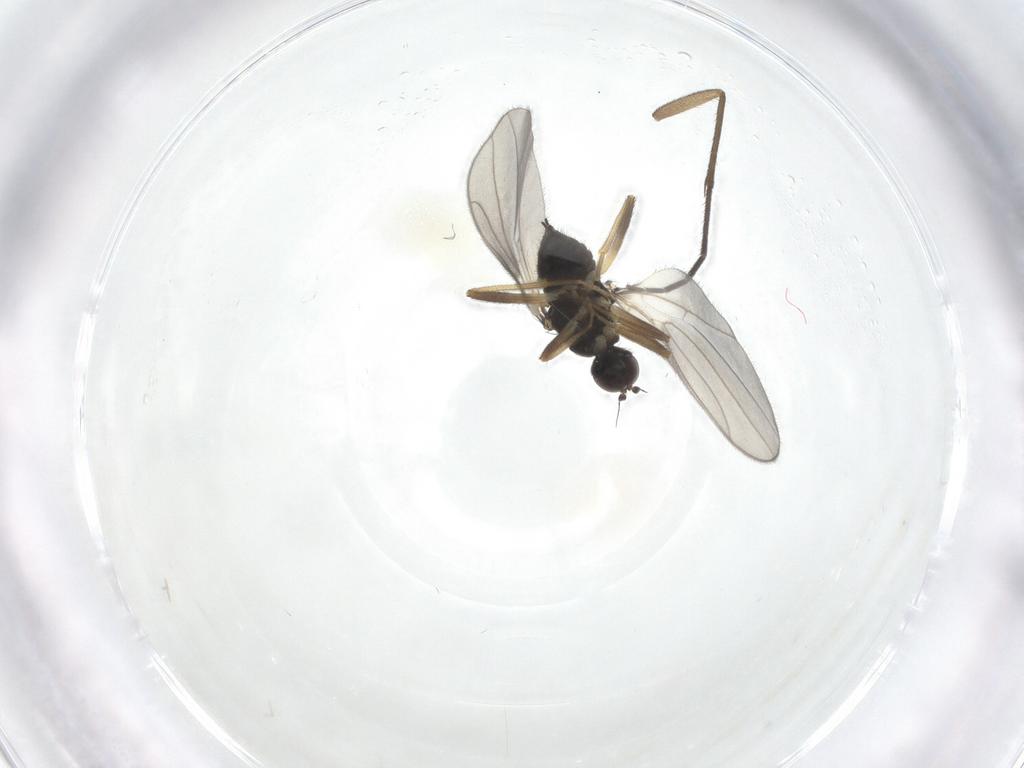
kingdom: Animalia
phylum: Arthropoda
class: Insecta
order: Diptera
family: Hybotidae
